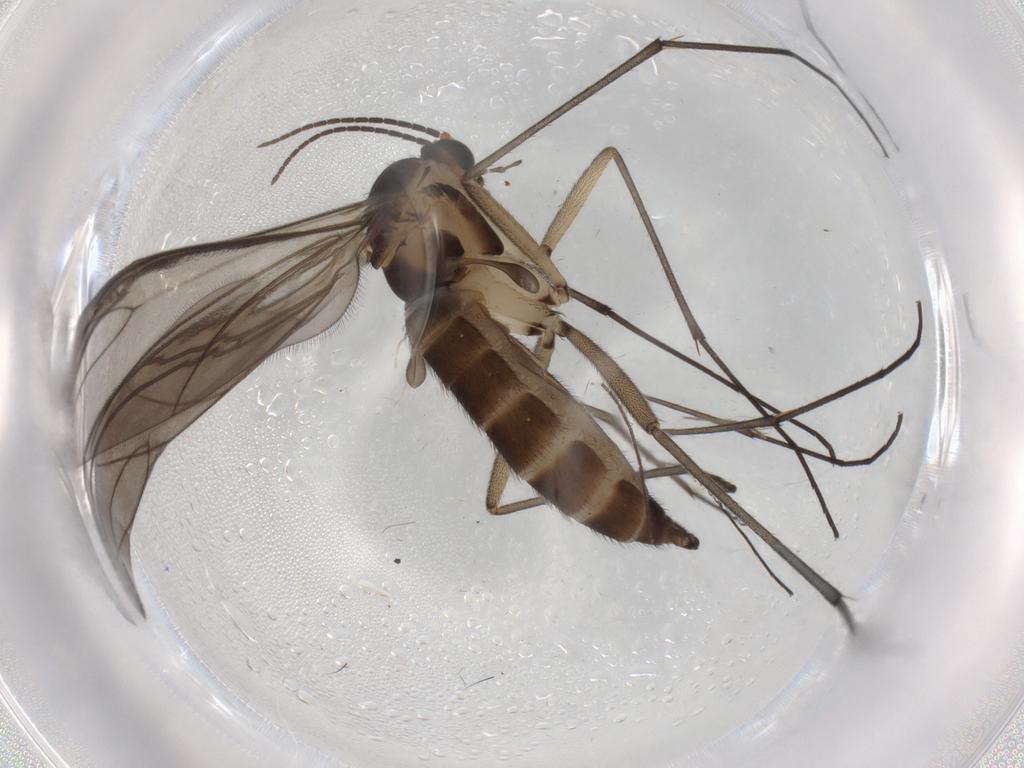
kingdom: Animalia
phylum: Arthropoda
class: Insecta
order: Diptera
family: Sciaridae
